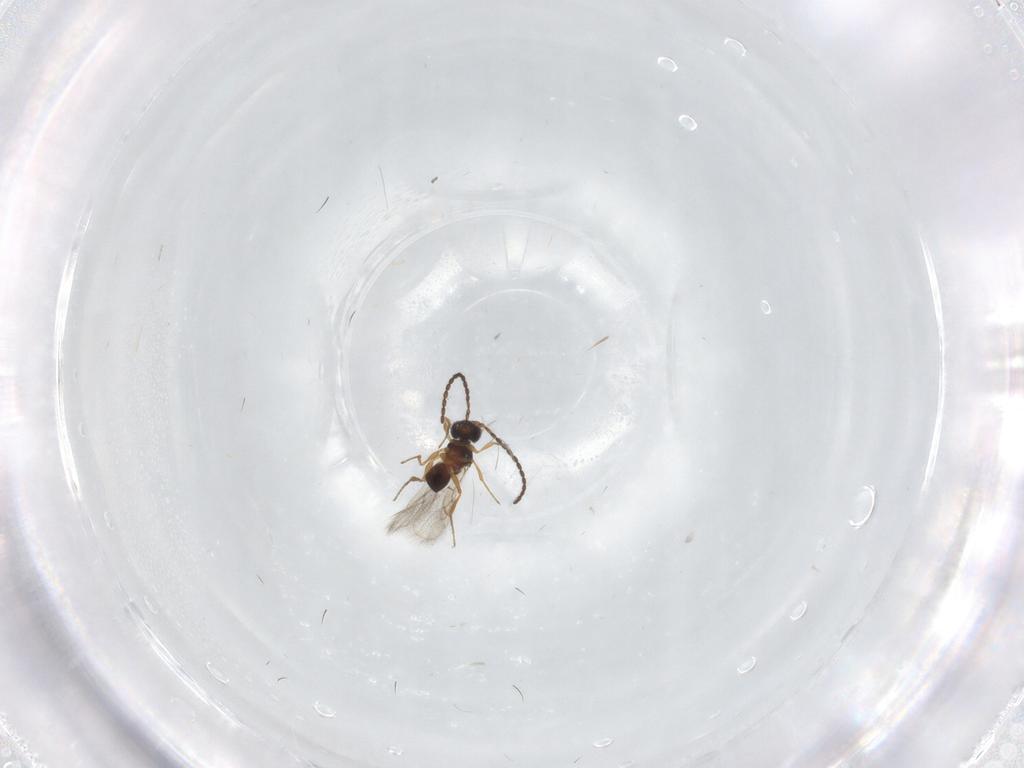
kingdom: Animalia
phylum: Arthropoda
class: Insecta
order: Hymenoptera
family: Figitidae
